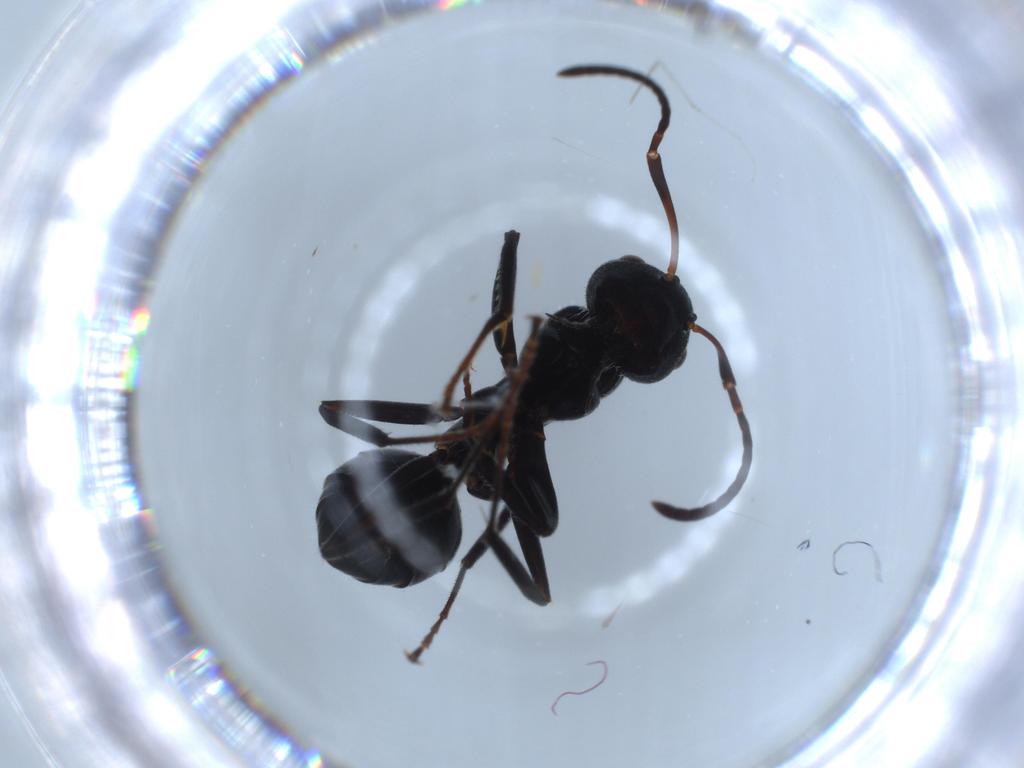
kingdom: Animalia
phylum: Arthropoda
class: Insecta
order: Hymenoptera
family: Formicidae
